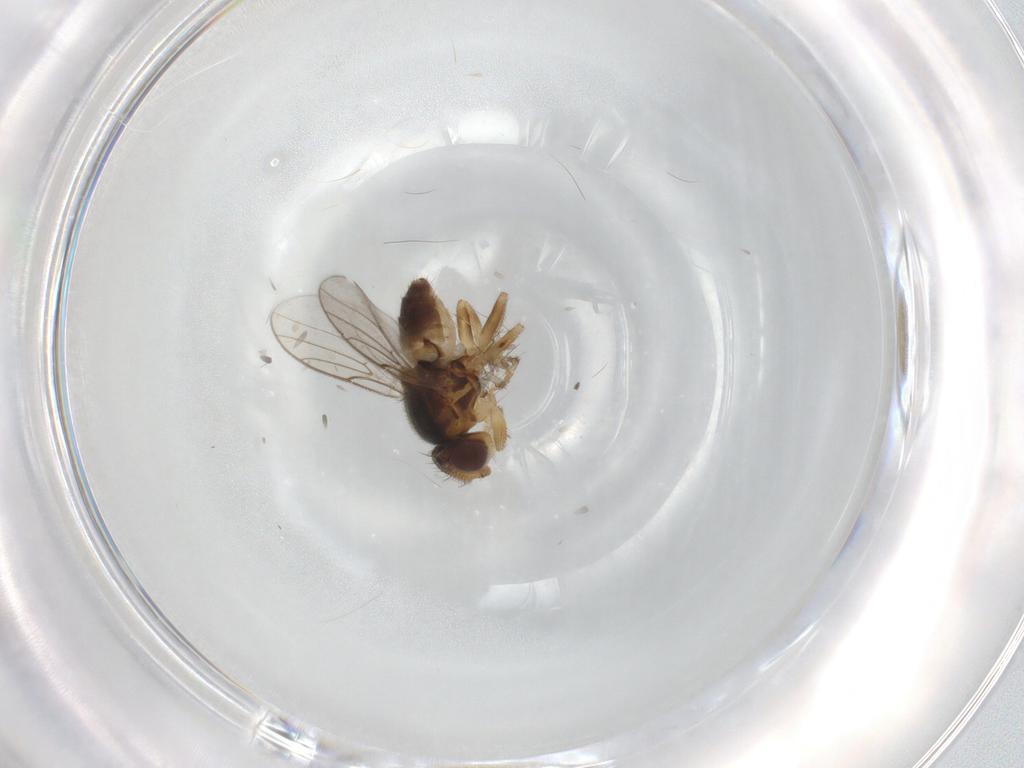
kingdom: Animalia
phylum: Arthropoda
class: Insecta
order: Diptera
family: Chloropidae
